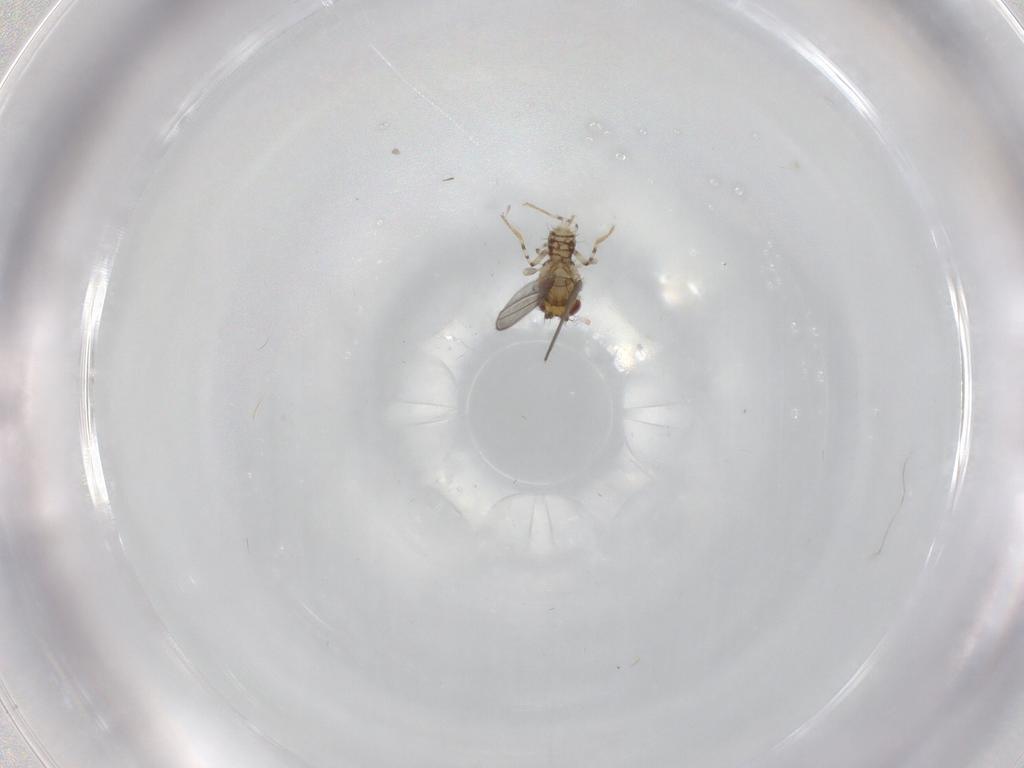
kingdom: Animalia
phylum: Arthropoda
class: Insecta
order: Diptera
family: Asteiidae
